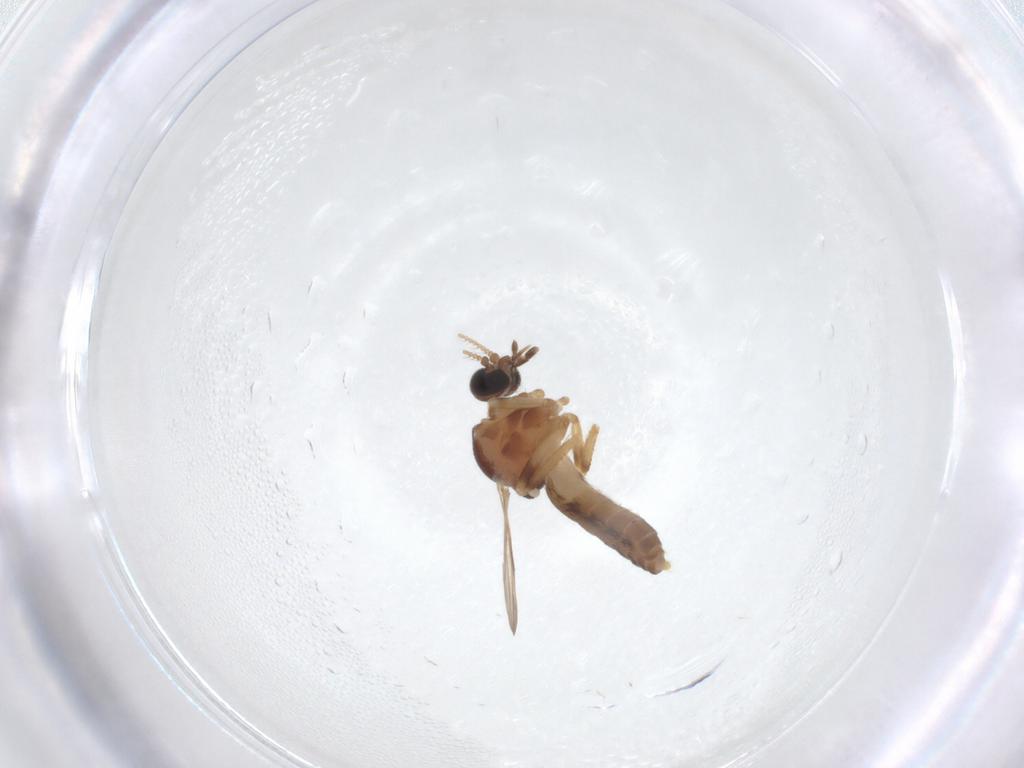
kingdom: Animalia
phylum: Arthropoda
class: Insecta
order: Diptera
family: Ceratopogonidae
